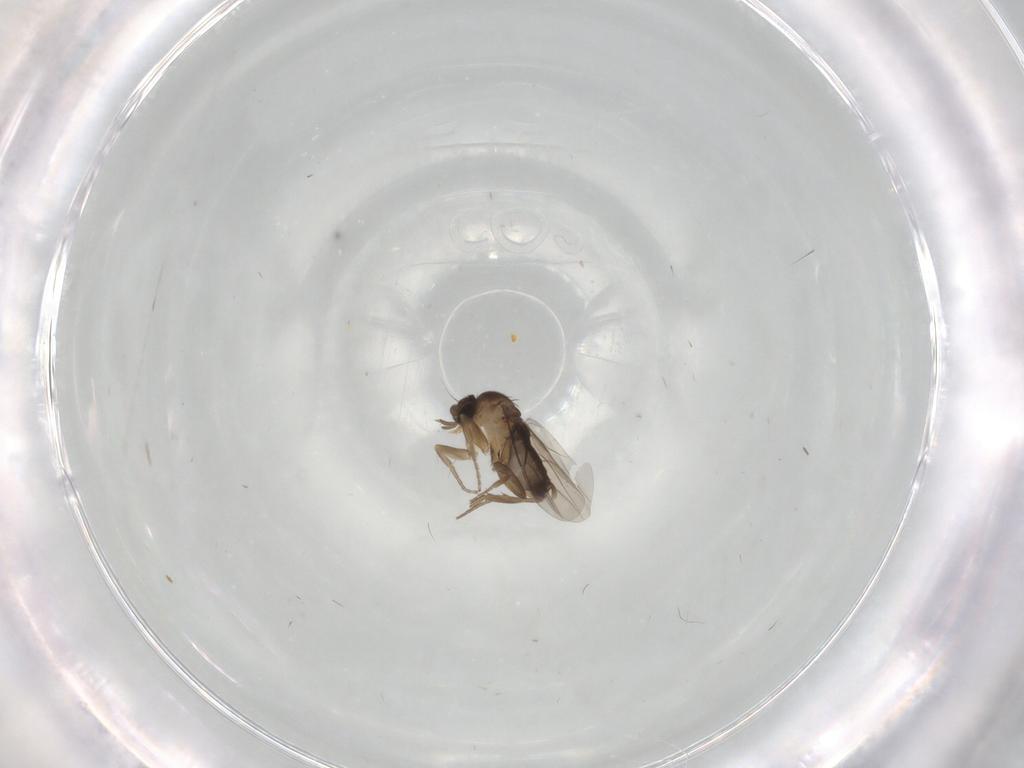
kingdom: Animalia
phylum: Arthropoda
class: Insecta
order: Diptera
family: Phoridae
